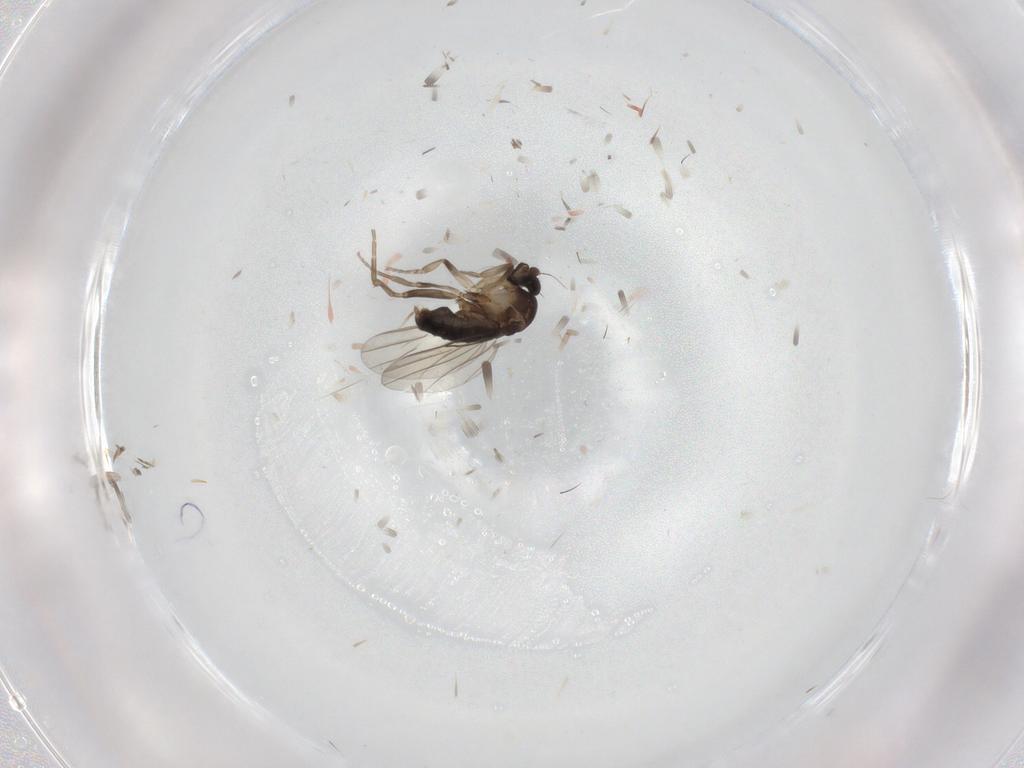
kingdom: Animalia
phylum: Arthropoda
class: Insecta
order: Diptera
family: Phoridae
